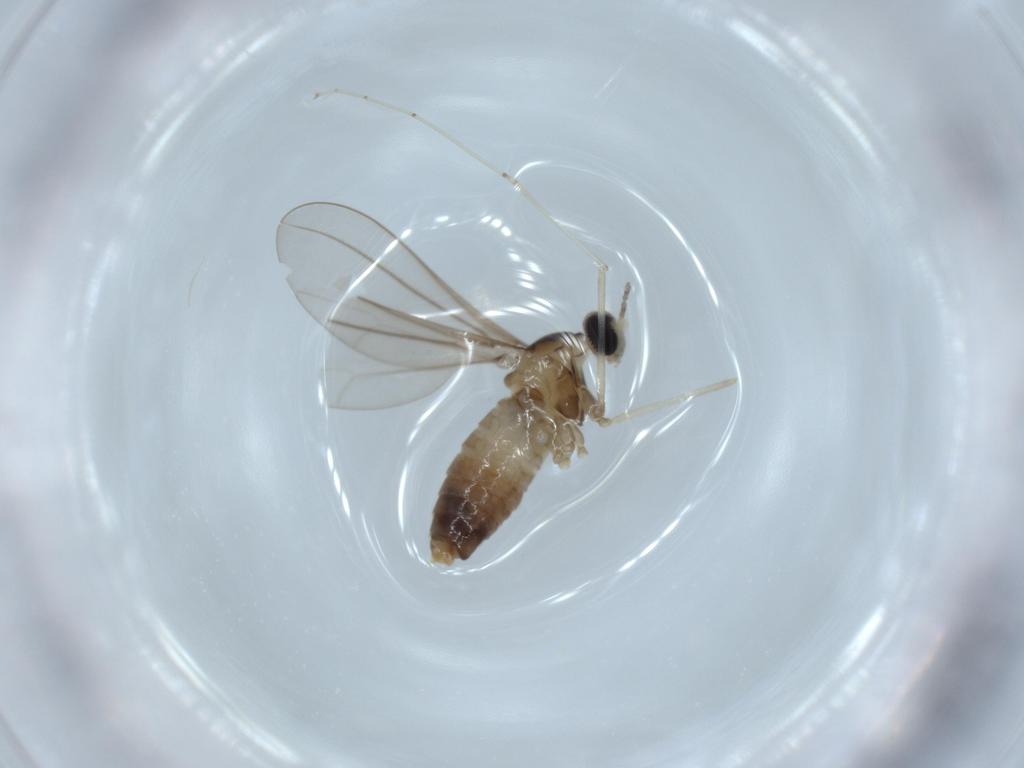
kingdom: Animalia
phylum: Arthropoda
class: Insecta
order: Diptera
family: Cecidomyiidae
